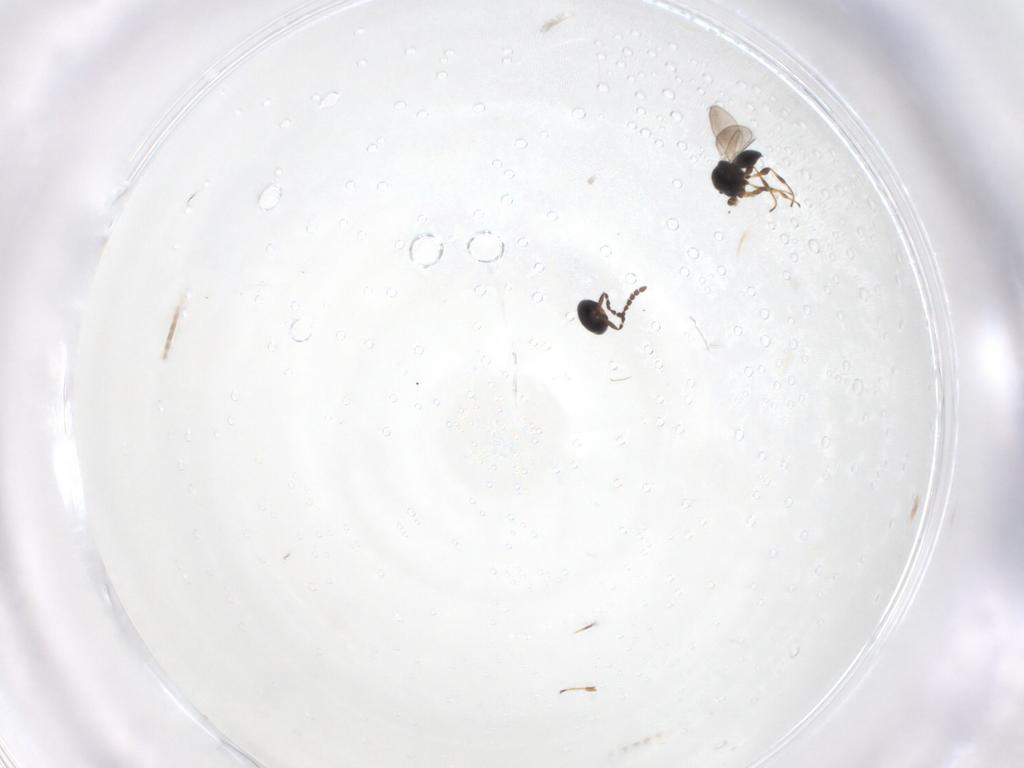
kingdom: Animalia
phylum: Arthropoda
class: Insecta
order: Hymenoptera
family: Platygastridae
